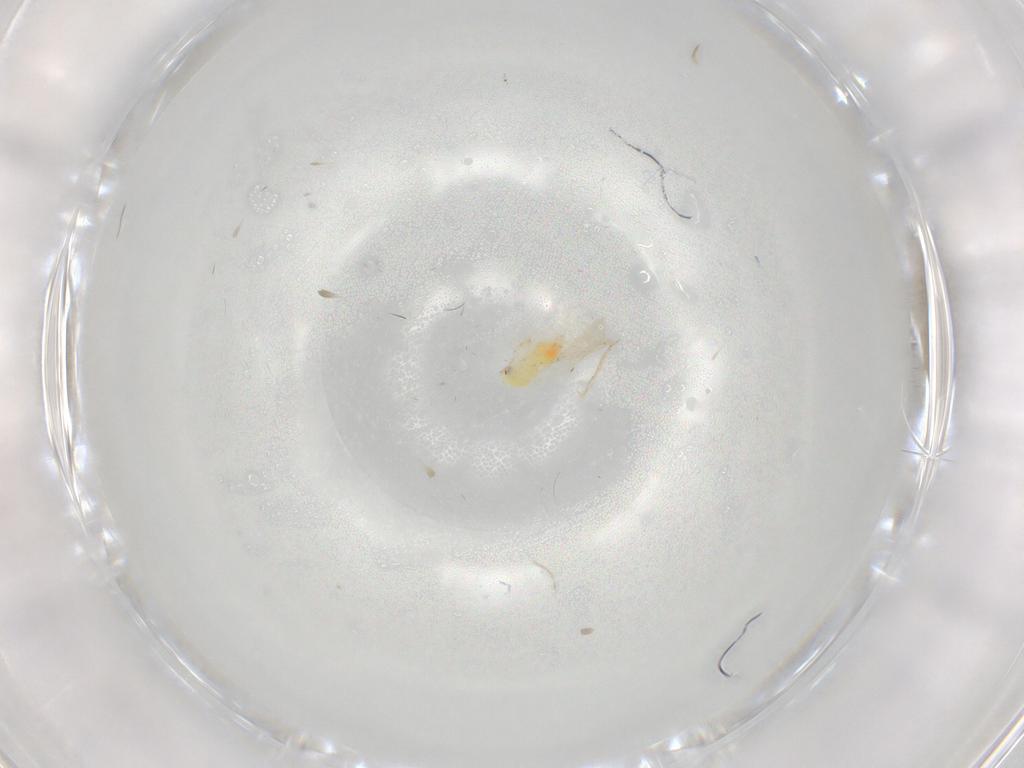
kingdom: Animalia
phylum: Arthropoda
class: Insecta
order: Hemiptera
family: Aleyrodidae
